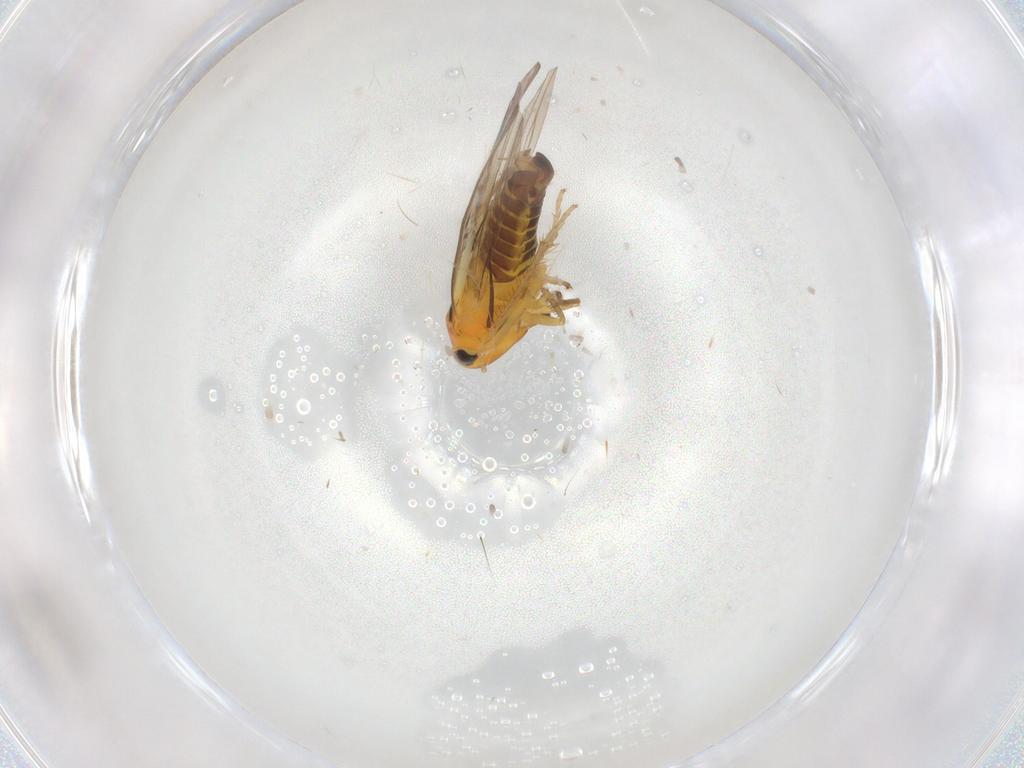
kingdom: Animalia
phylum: Arthropoda
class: Insecta
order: Hemiptera
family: Cicadellidae
